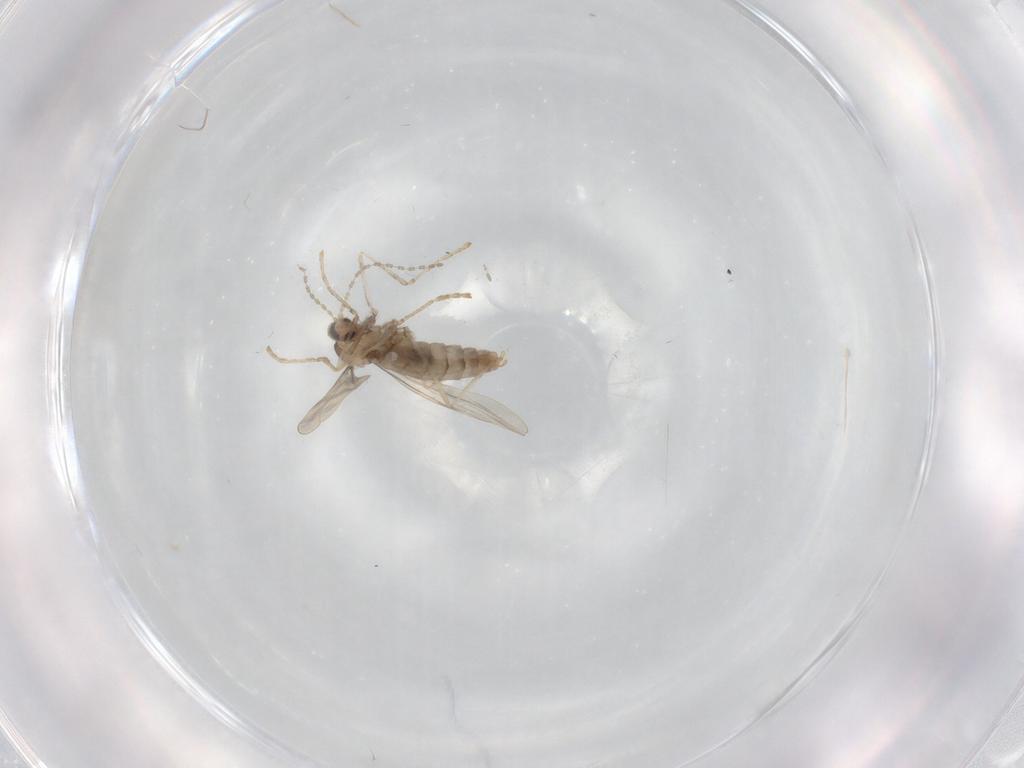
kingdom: Animalia
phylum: Arthropoda
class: Insecta
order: Diptera
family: Cecidomyiidae
